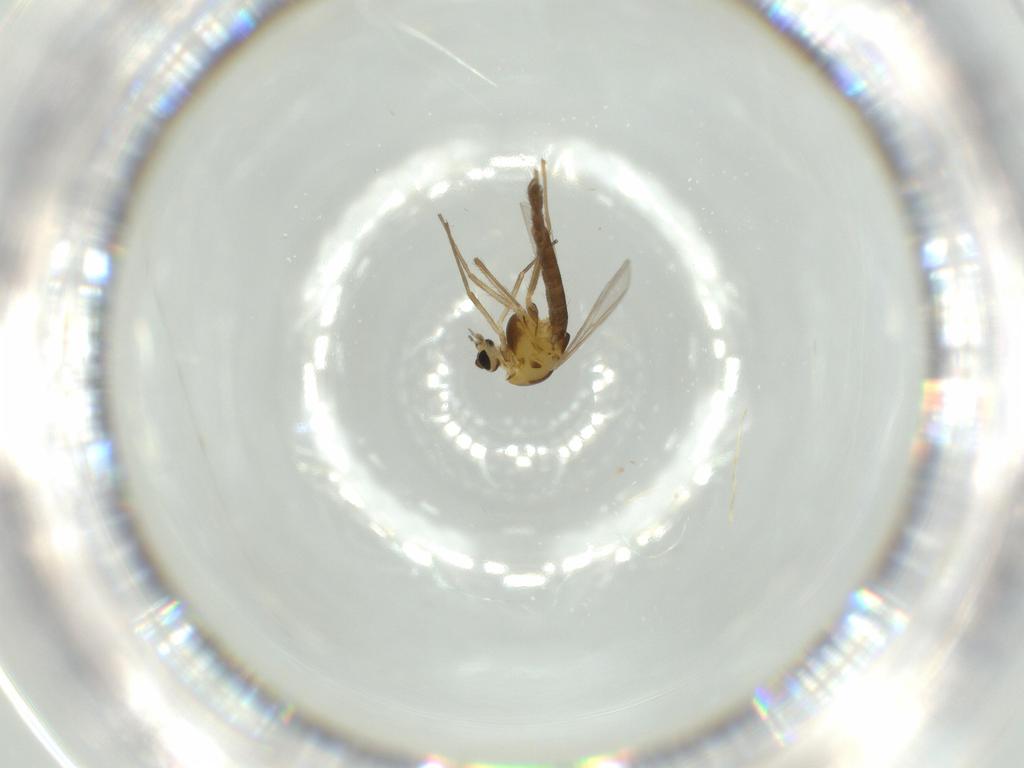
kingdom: Animalia
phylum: Arthropoda
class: Insecta
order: Diptera
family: Chironomidae
